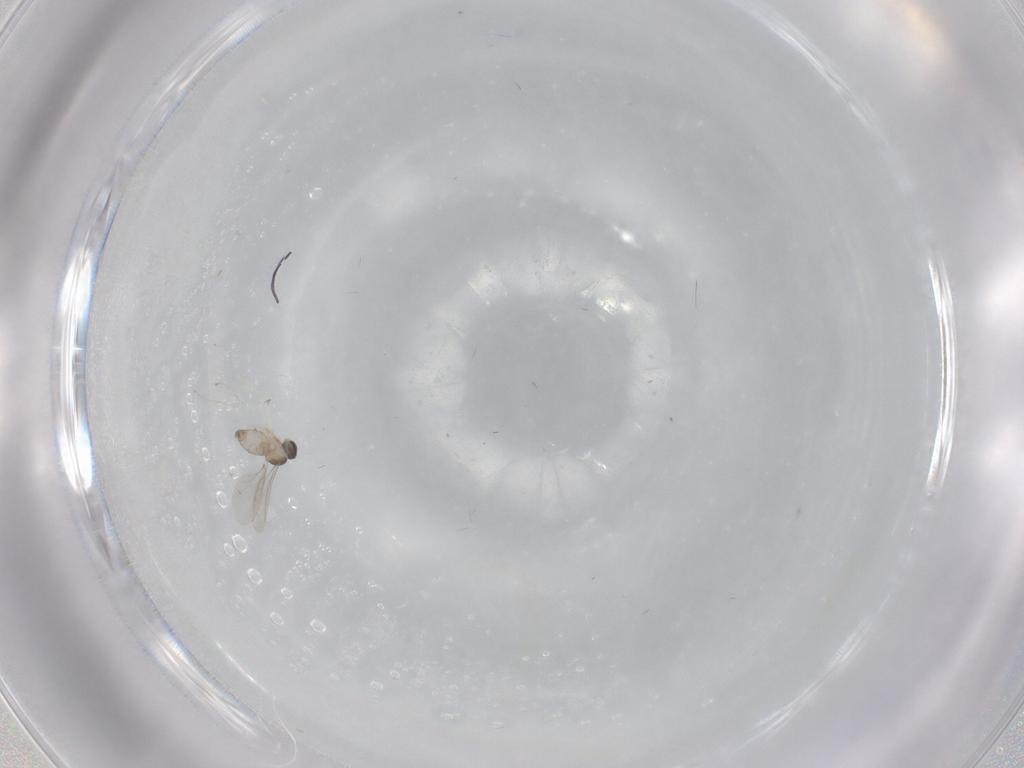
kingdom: Animalia
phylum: Arthropoda
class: Insecta
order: Diptera
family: Cecidomyiidae
